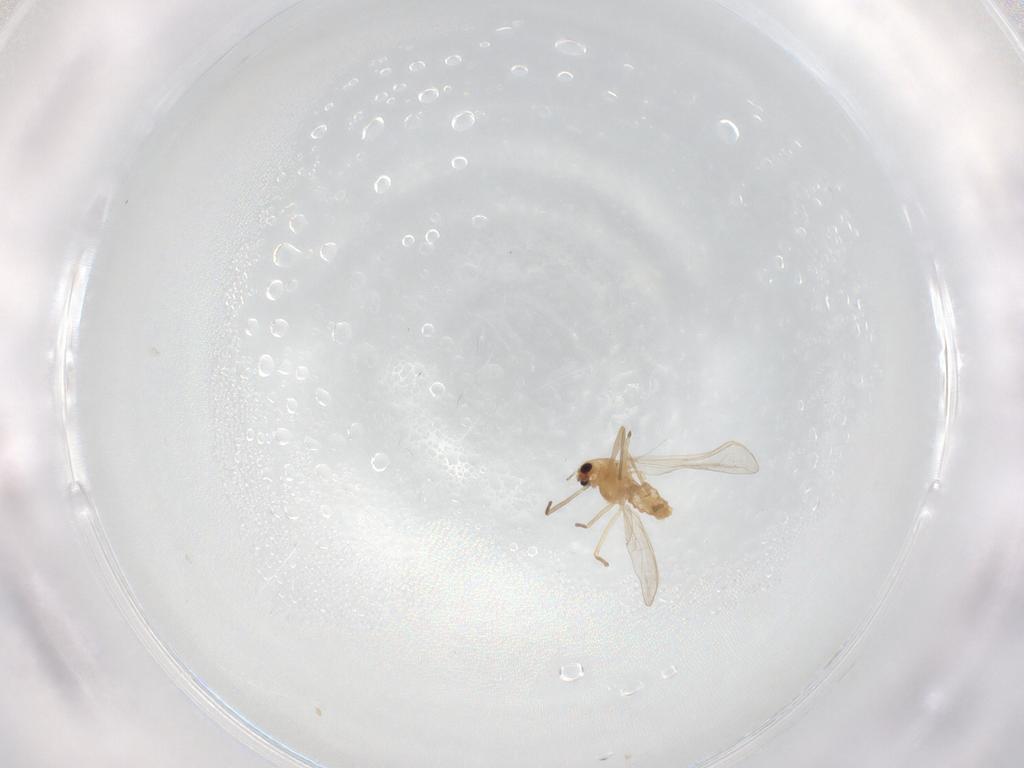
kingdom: Animalia
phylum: Arthropoda
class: Insecta
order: Diptera
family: Chironomidae
